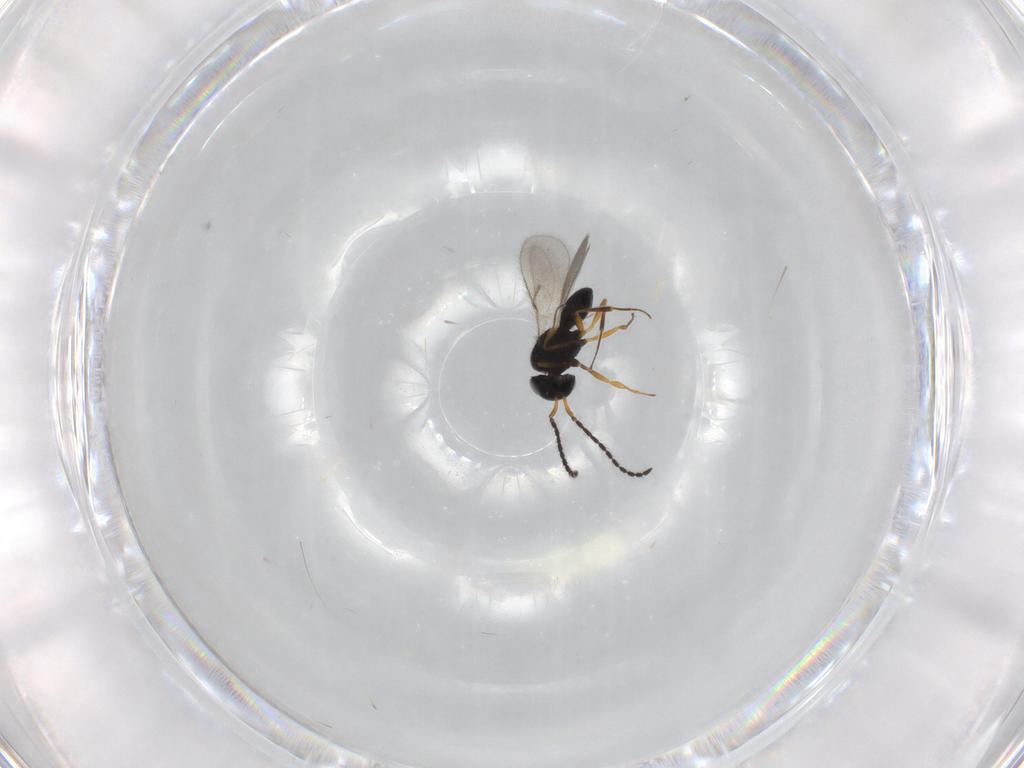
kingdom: Animalia
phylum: Arthropoda
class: Insecta
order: Hymenoptera
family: Scelionidae
